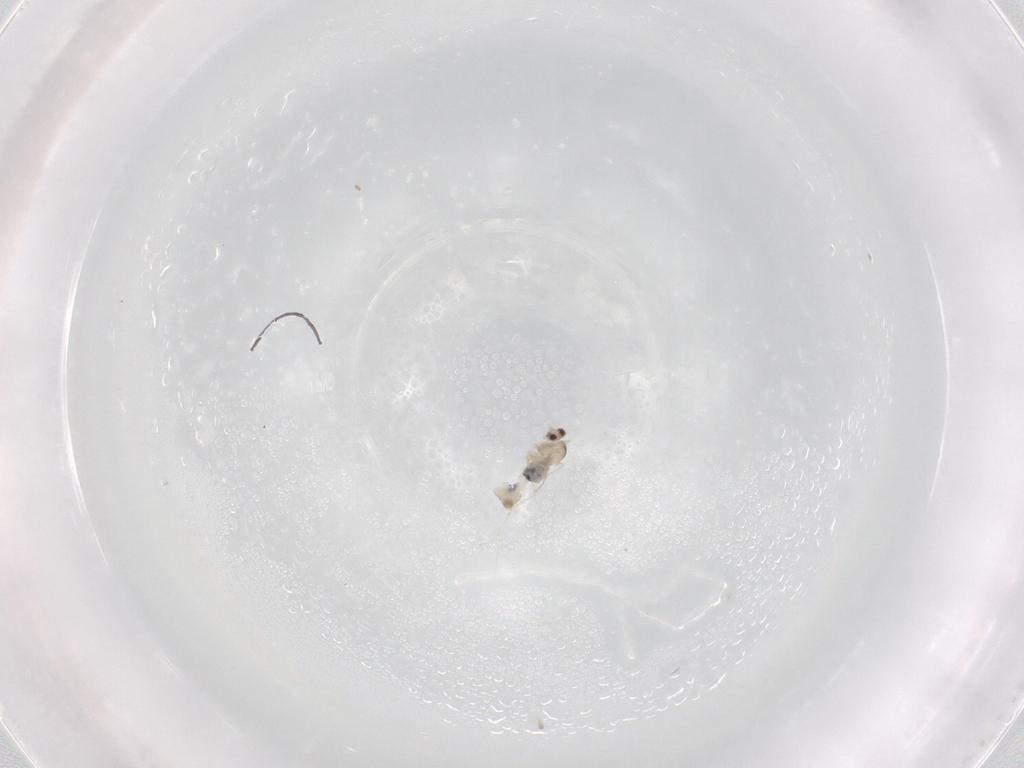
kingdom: Animalia
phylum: Arthropoda
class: Insecta
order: Diptera
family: Cecidomyiidae
